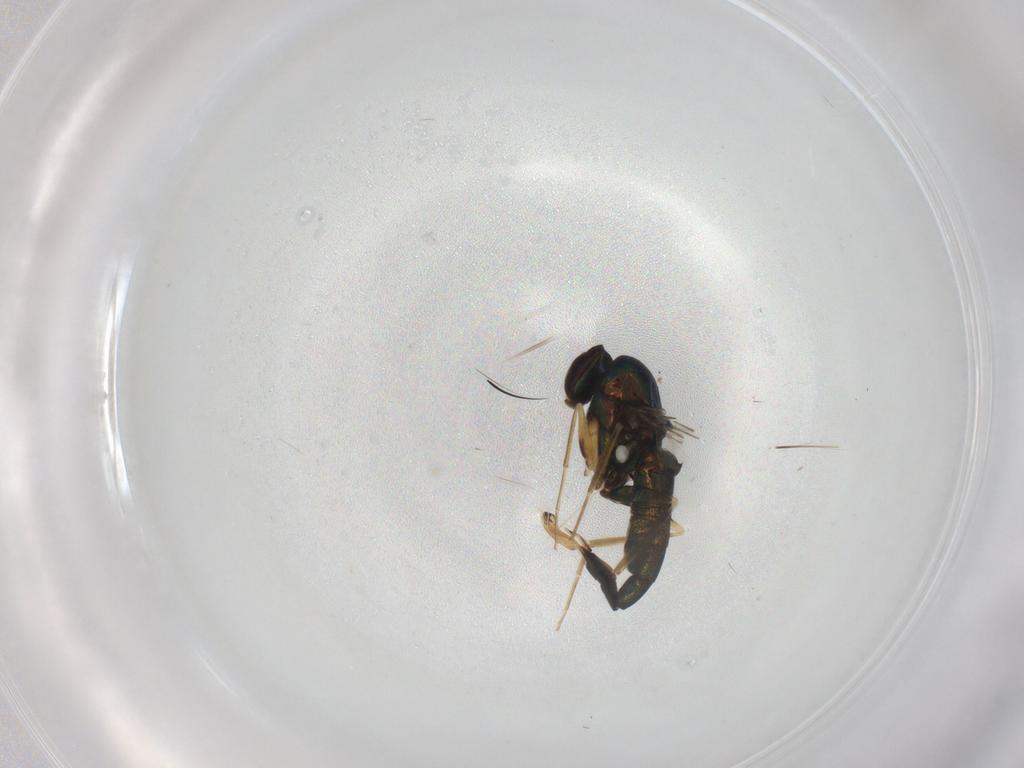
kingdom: Animalia
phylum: Arthropoda
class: Insecta
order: Diptera
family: Dolichopodidae
